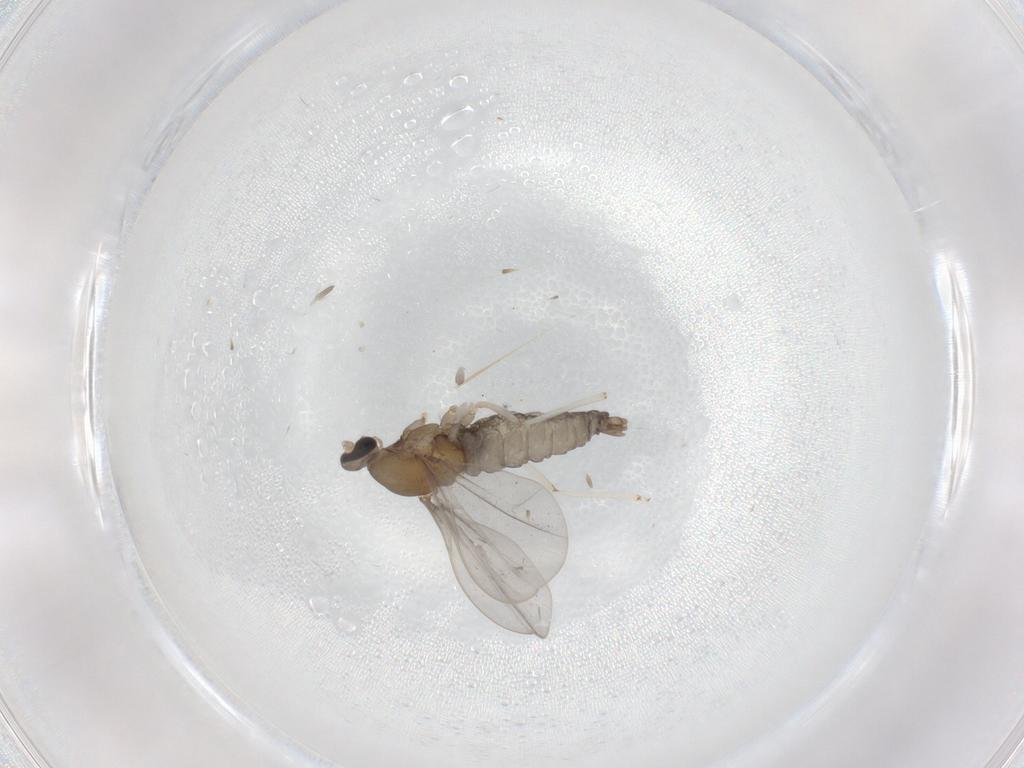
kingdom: Animalia
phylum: Arthropoda
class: Insecta
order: Diptera
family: Cecidomyiidae
